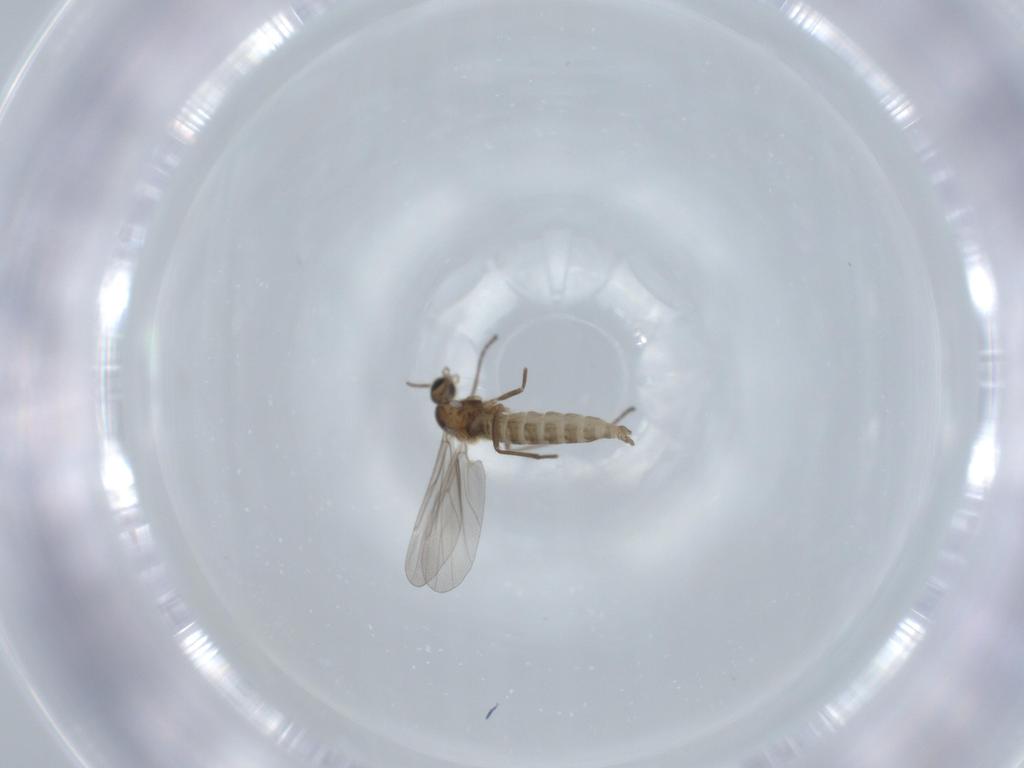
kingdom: Animalia
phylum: Arthropoda
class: Insecta
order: Diptera
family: Cecidomyiidae
